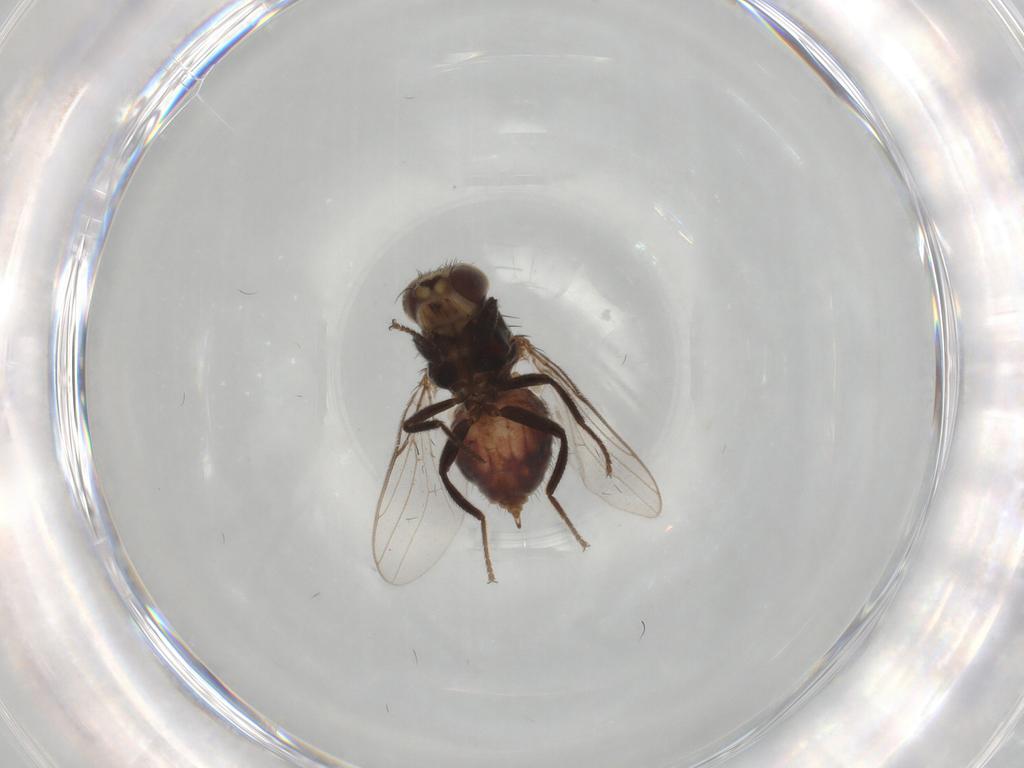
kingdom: Animalia
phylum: Arthropoda
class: Insecta
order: Diptera
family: Chloropidae
